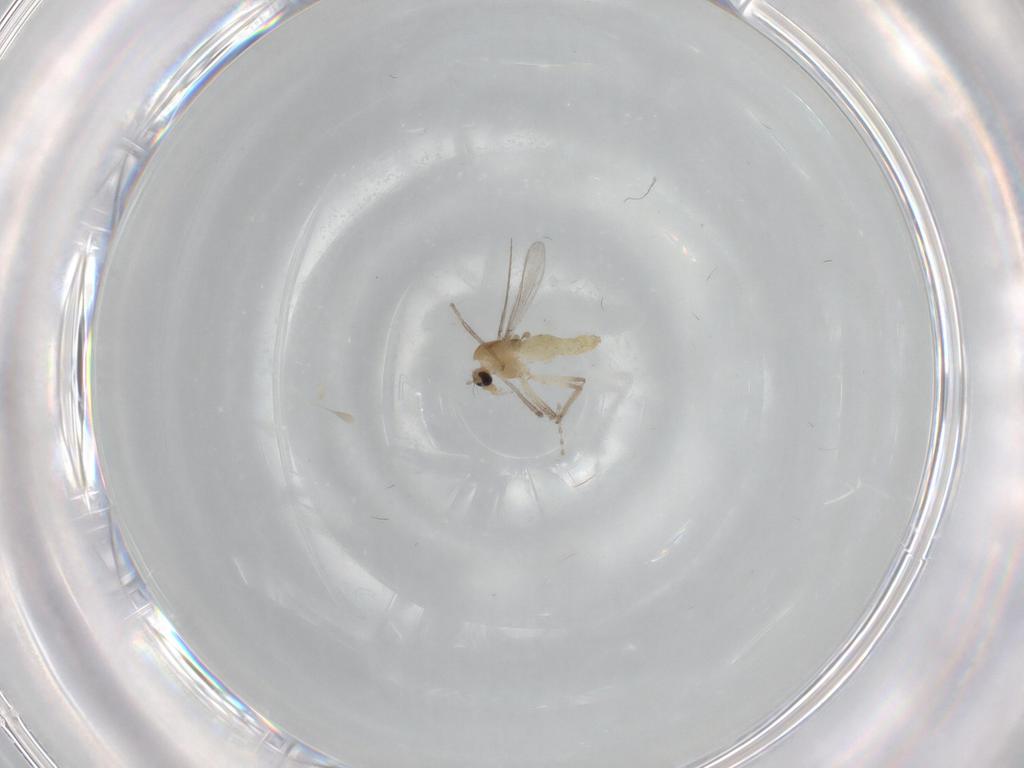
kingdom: Animalia
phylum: Arthropoda
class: Insecta
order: Diptera
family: Chironomidae
